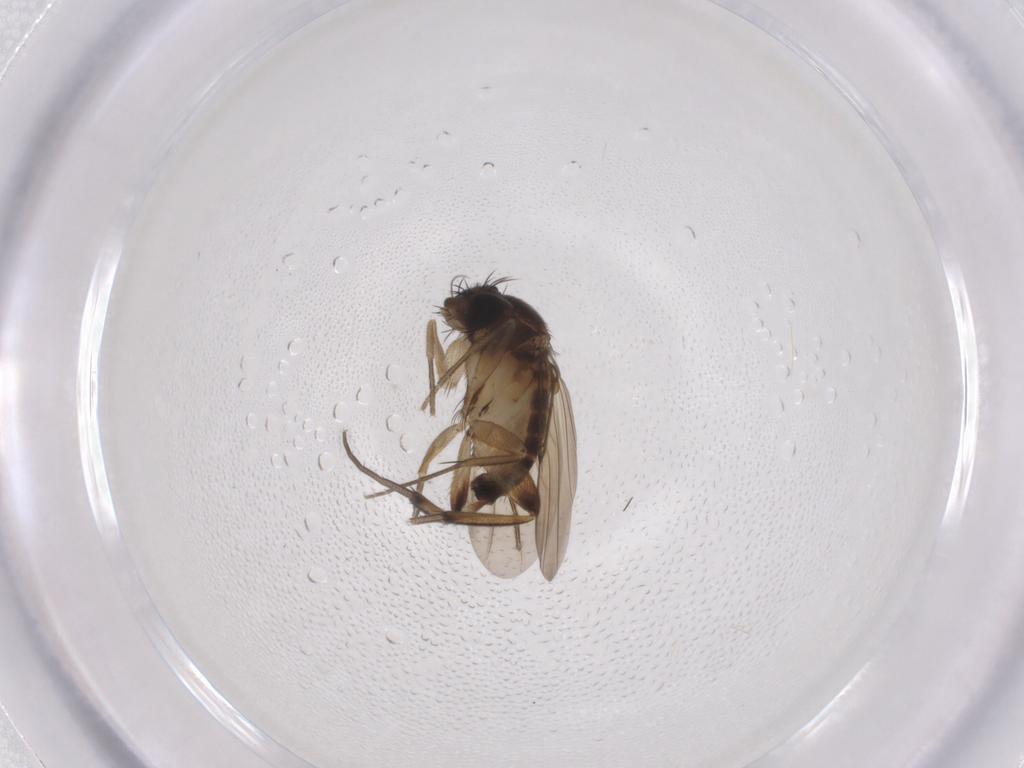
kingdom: Animalia
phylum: Arthropoda
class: Insecta
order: Diptera
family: Phoridae
